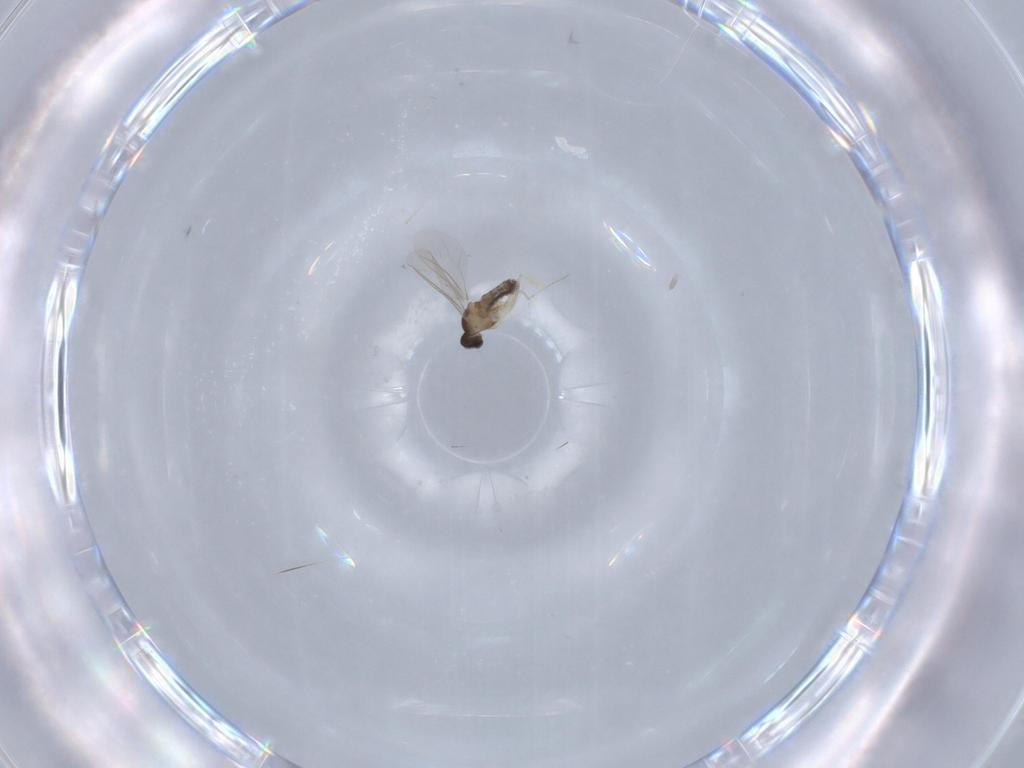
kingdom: Animalia
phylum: Arthropoda
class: Insecta
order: Diptera
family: Cecidomyiidae
